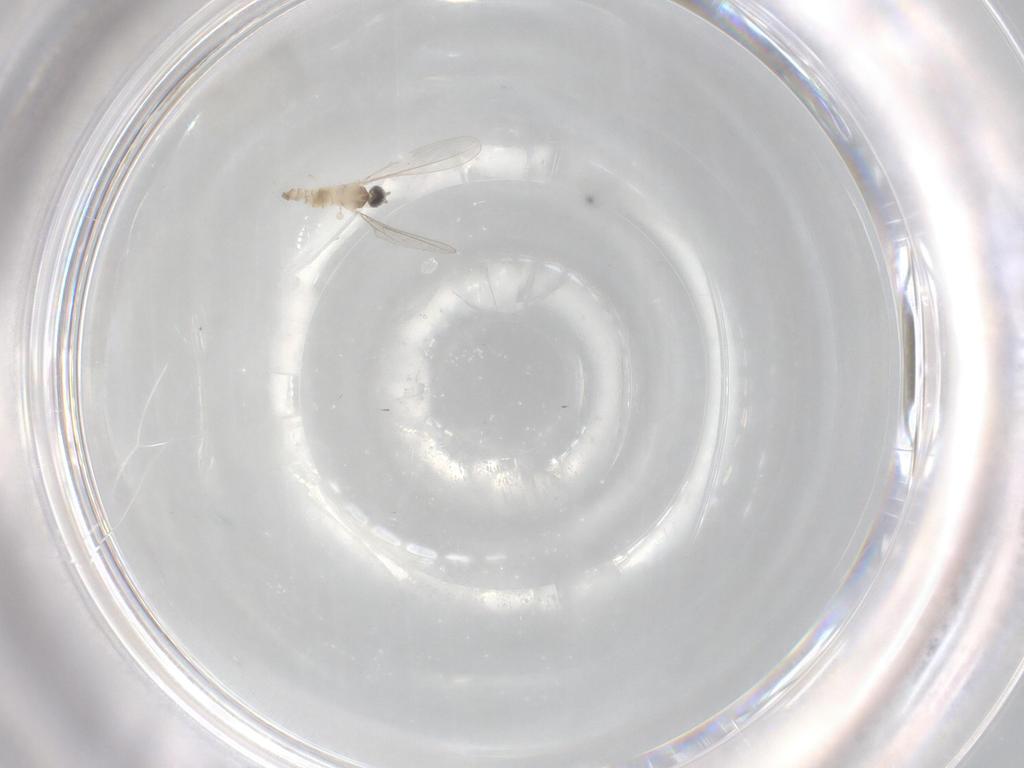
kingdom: Animalia
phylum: Arthropoda
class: Insecta
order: Diptera
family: Cecidomyiidae
